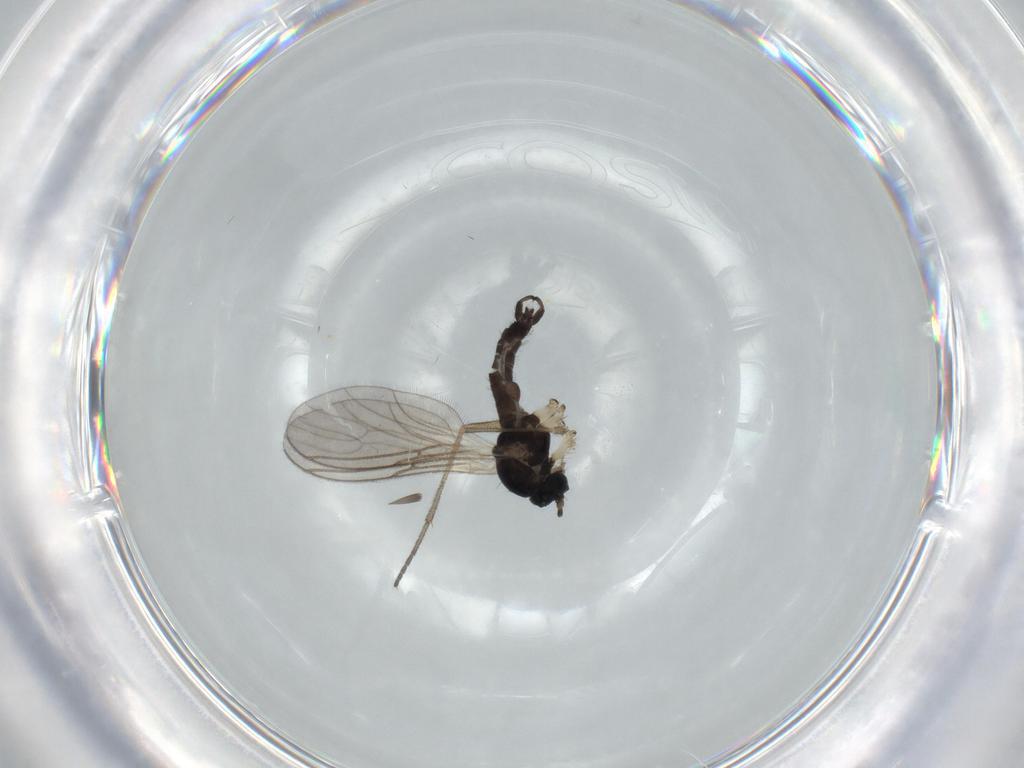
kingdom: Animalia
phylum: Arthropoda
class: Insecta
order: Diptera
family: Sciaridae
